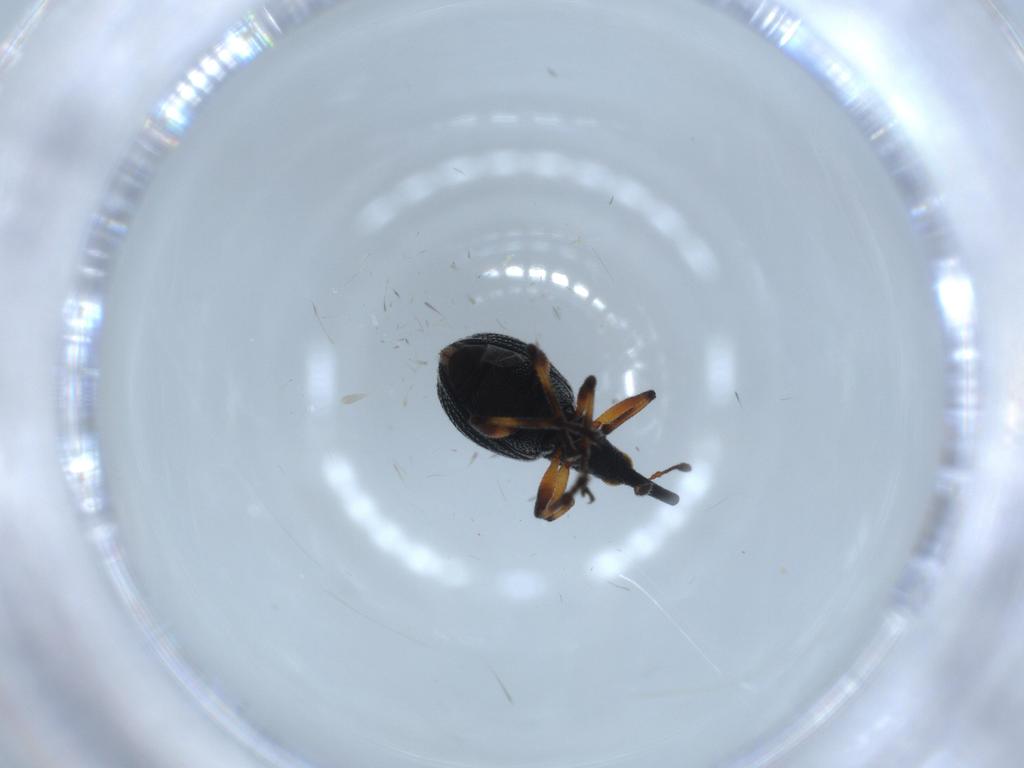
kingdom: Animalia
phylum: Arthropoda
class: Insecta
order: Coleoptera
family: Brentidae
